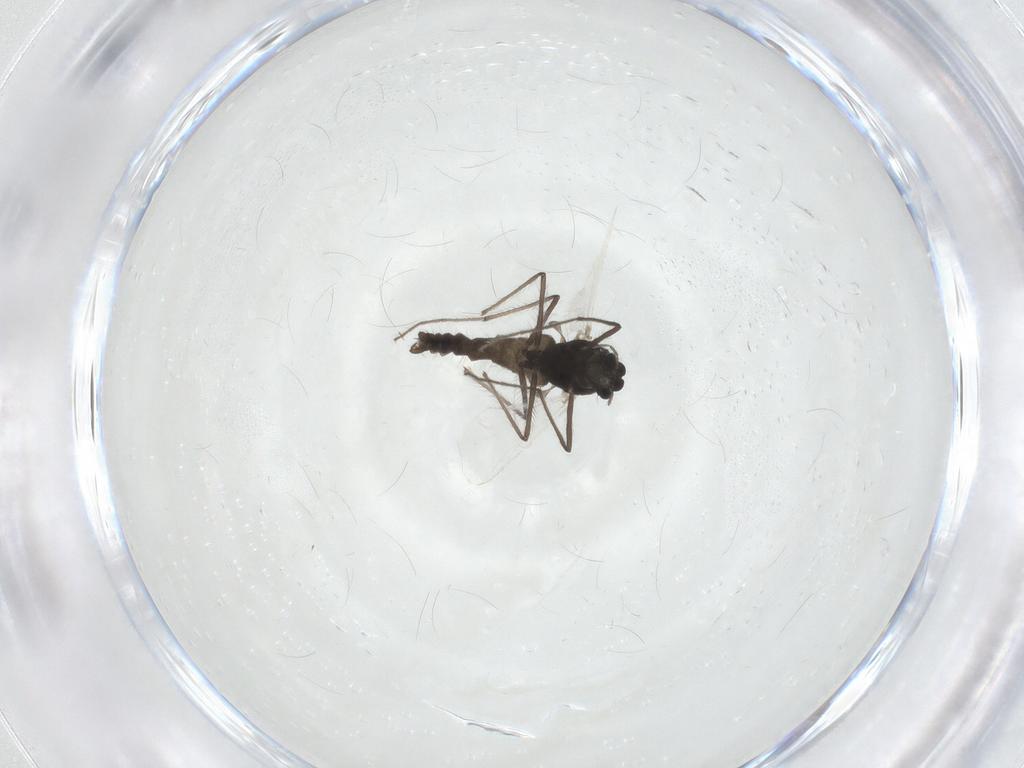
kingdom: Animalia
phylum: Arthropoda
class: Insecta
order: Diptera
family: Chironomidae
